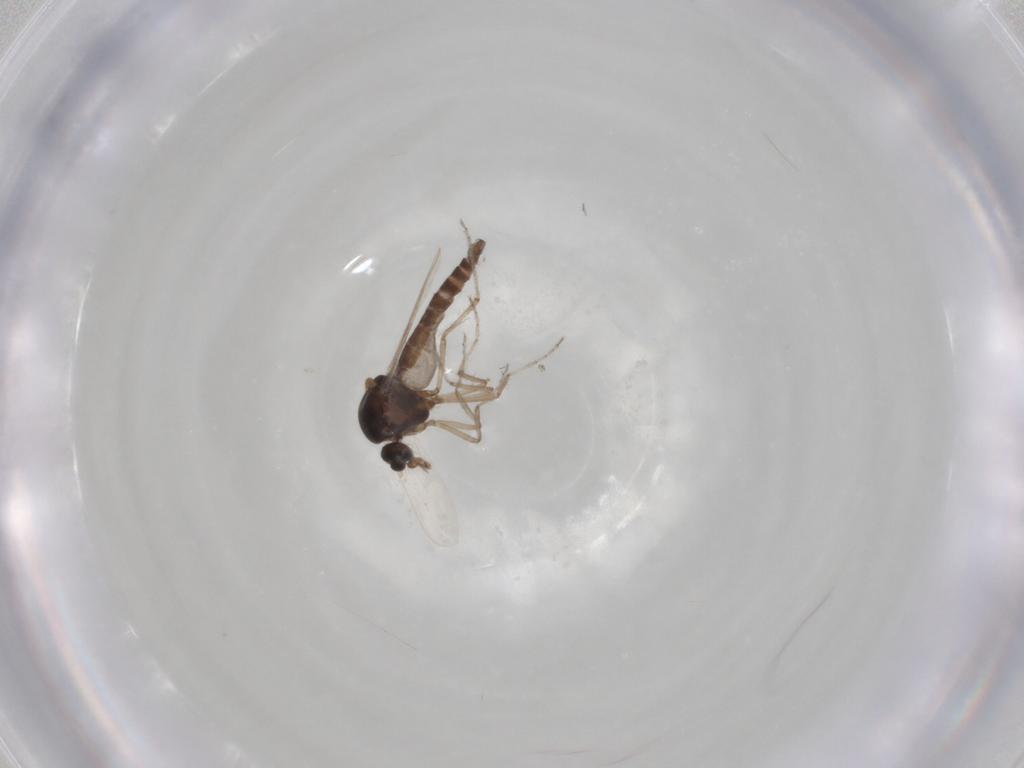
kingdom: Animalia
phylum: Arthropoda
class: Insecta
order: Diptera
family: Ceratopogonidae
